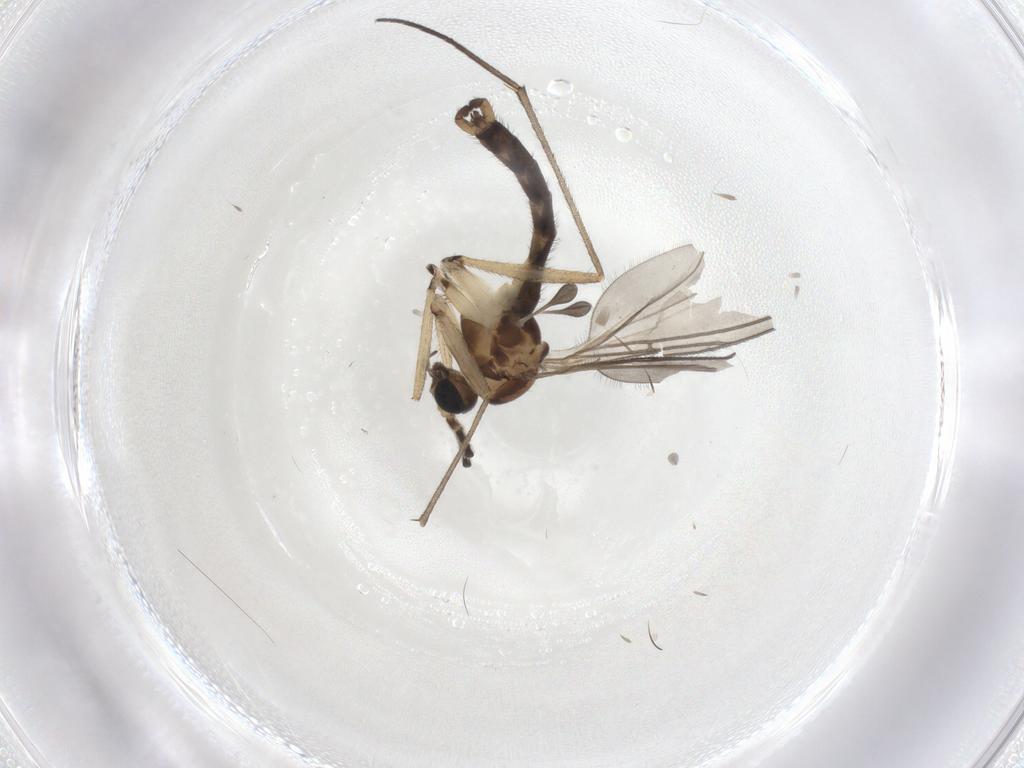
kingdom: Animalia
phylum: Arthropoda
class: Insecta
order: Diptera
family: Sciaridae
